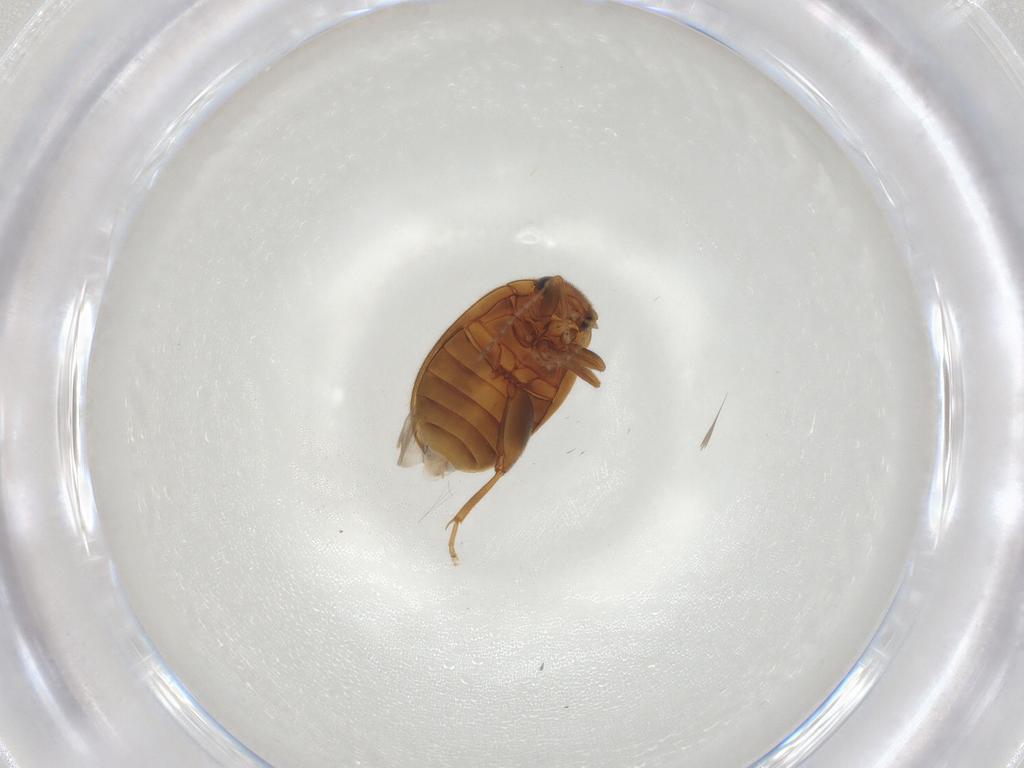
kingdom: Animalia
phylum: Arthropoda
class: Insecta
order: Coleoptera
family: Scirtidae
